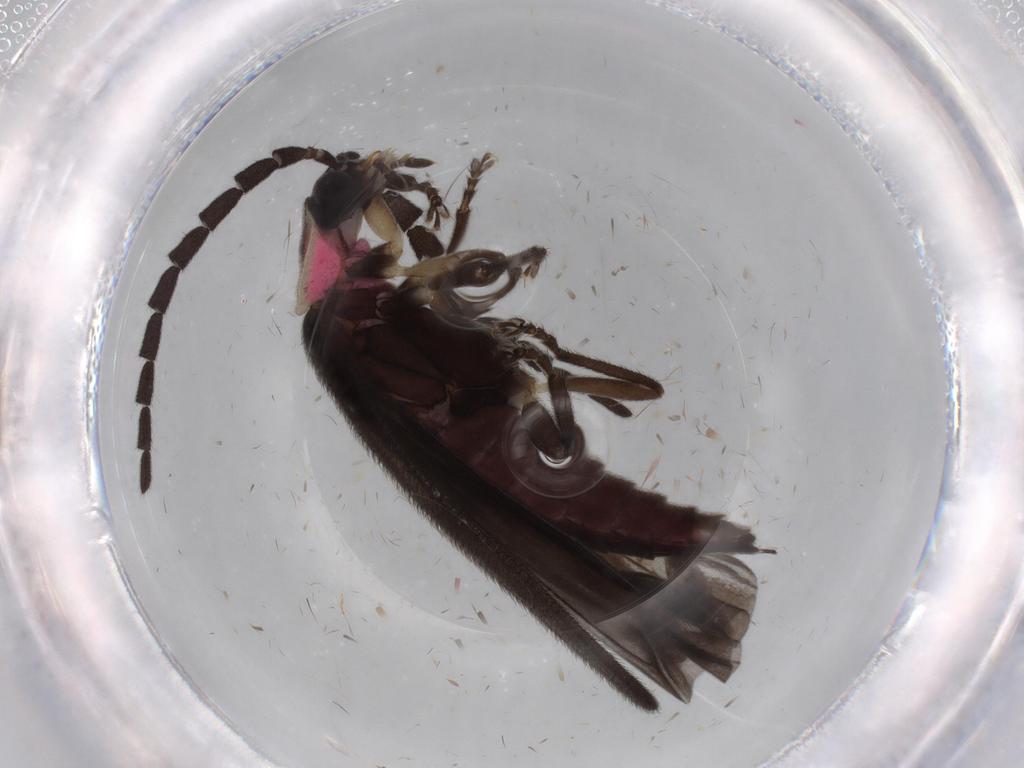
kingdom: Animalia
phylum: Arthropoda
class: Insecta
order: Coleoptera
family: Lampyridae
